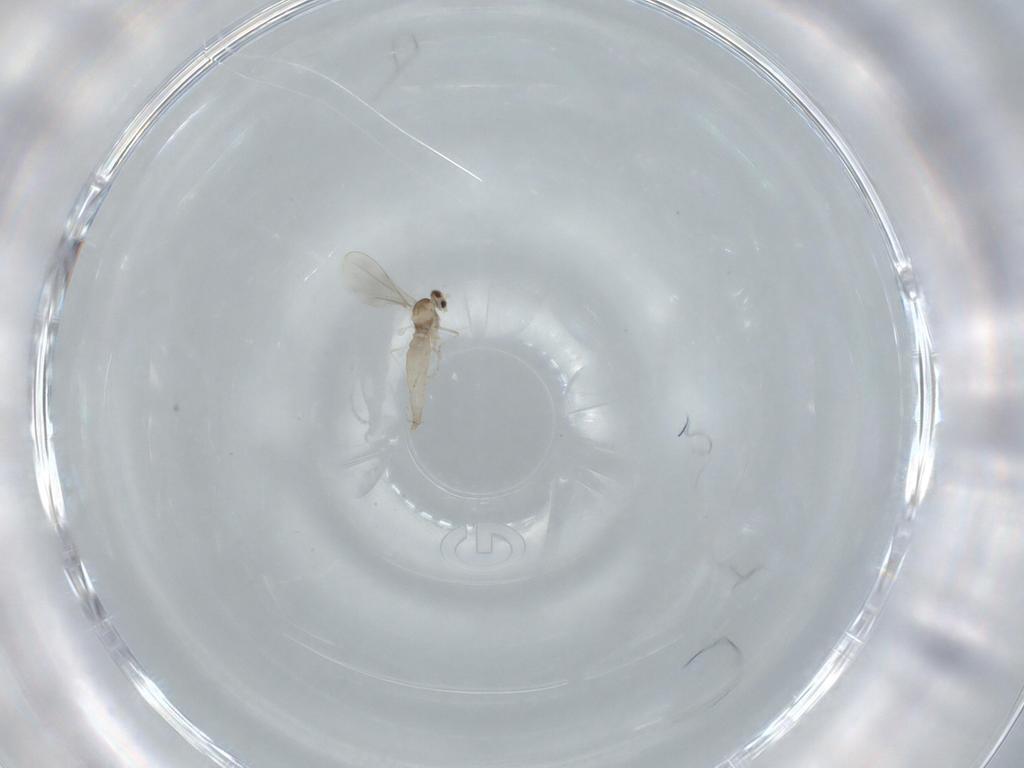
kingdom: Animalia
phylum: Arthropoda
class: Insecta
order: Diptera
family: Cecidomyiidae
